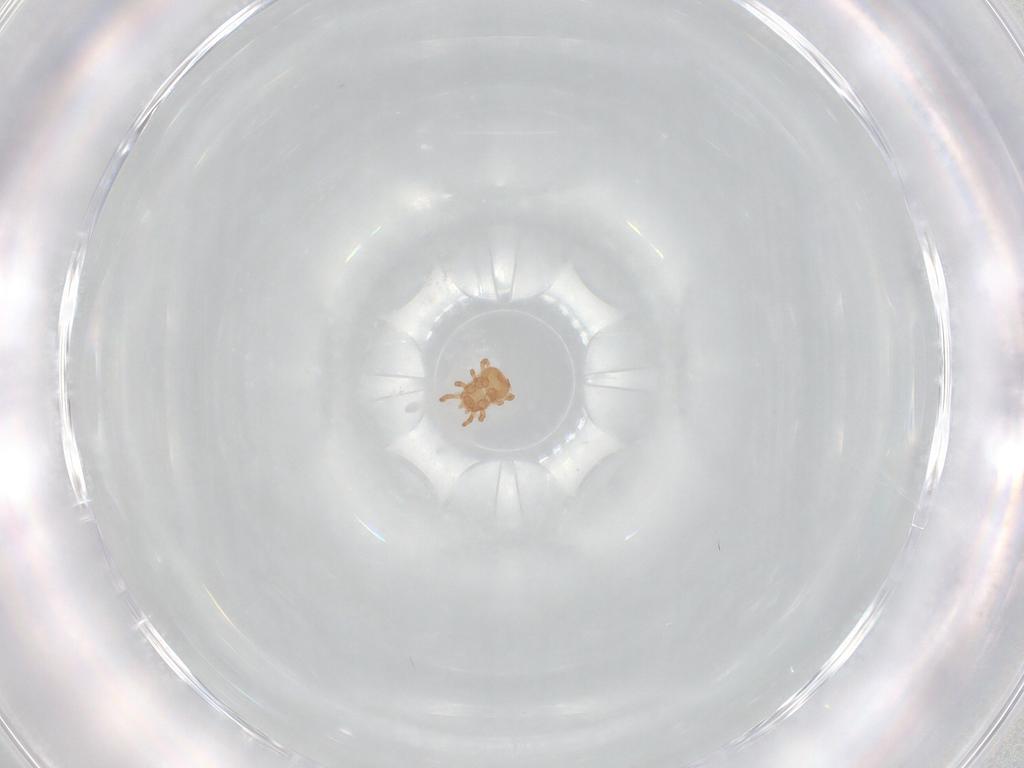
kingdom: Animalia
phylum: Arthropoda
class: Arachnida
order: Mesostigmata
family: Ascidae
